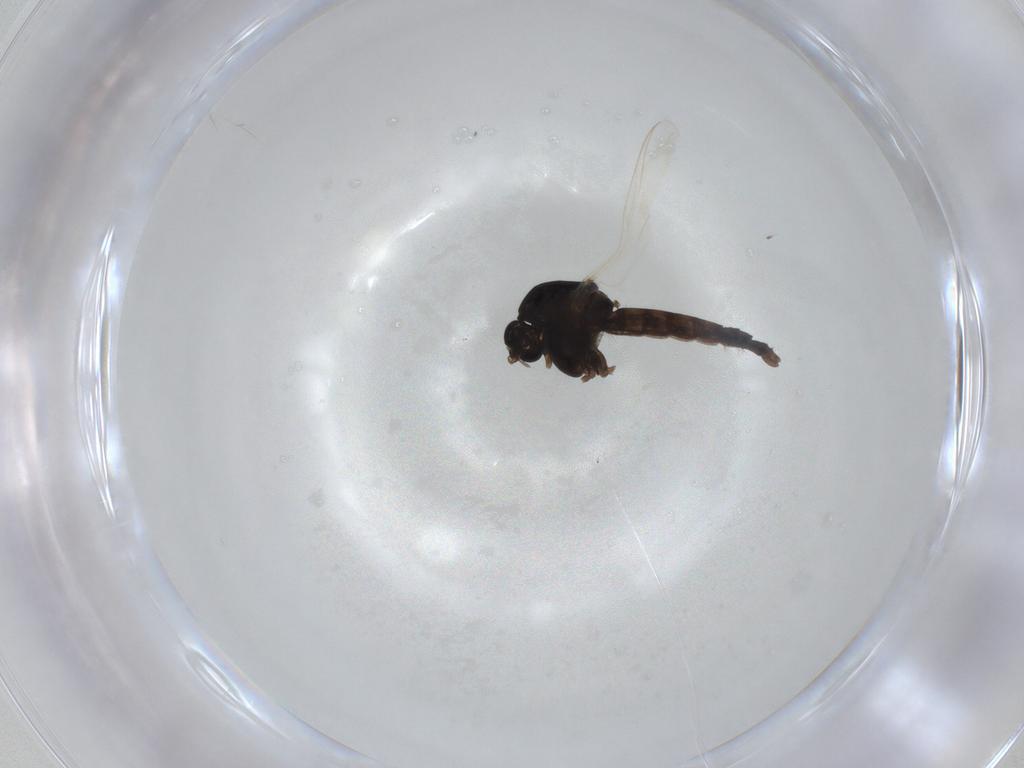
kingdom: Animalia
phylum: Arthropoda
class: Insecta
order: Diptera
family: Chironomidae
